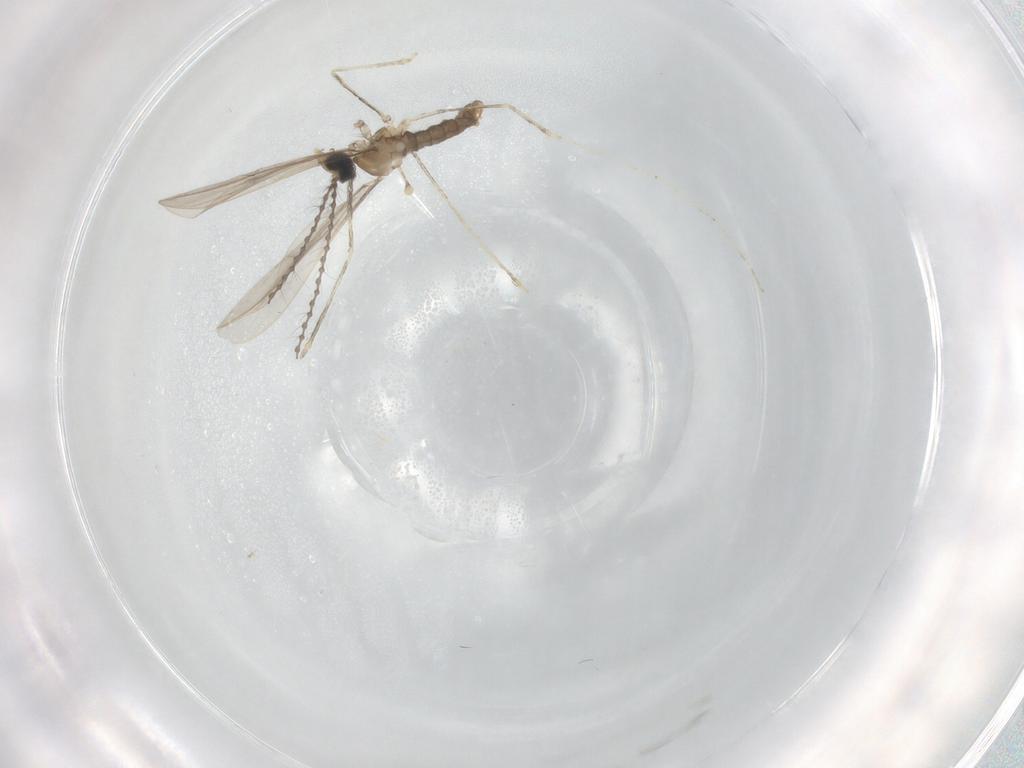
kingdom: Animalia
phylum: Arthropoda
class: Insecta
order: Diptera
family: Cecidomyiidae
